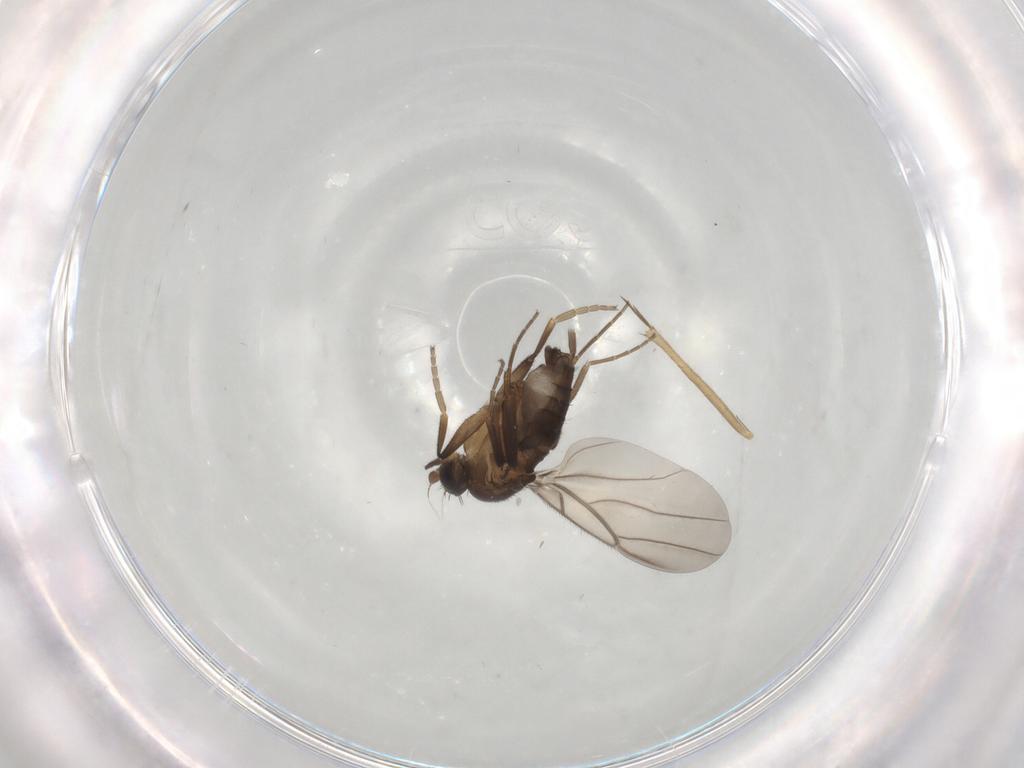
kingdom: Animalia
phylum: Arthropoda
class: Insecta
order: Diptera
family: Phoridae
